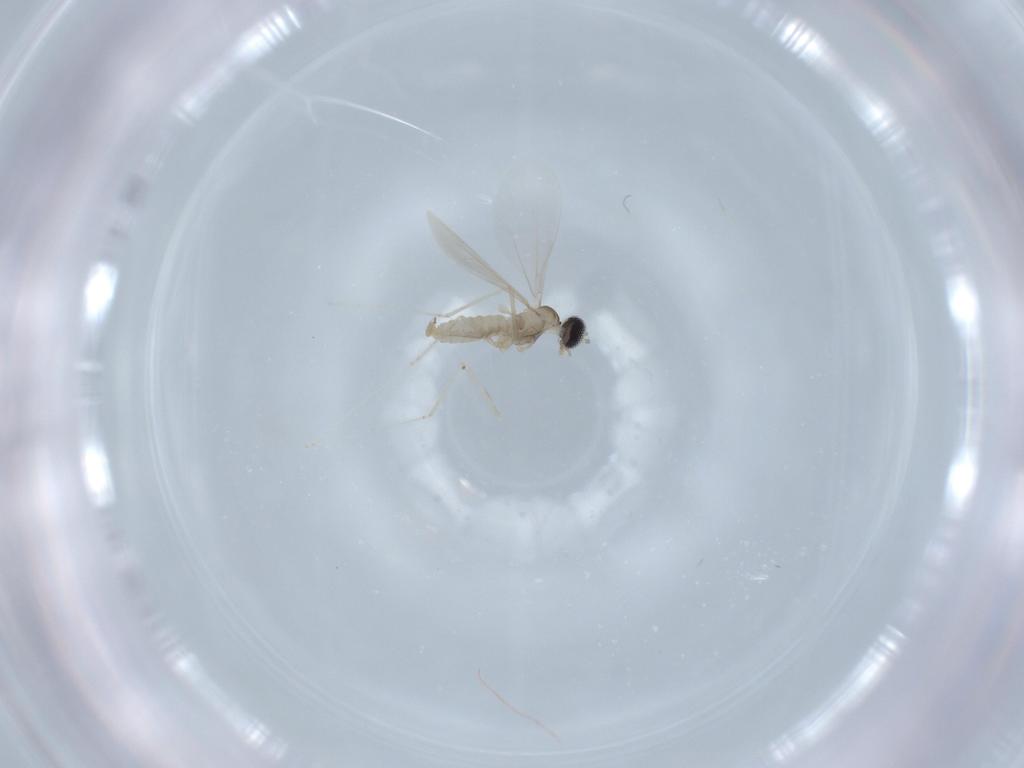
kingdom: Animalia
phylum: Arthropoda
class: Insecta
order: Diptera
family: Cecidomyiidae
